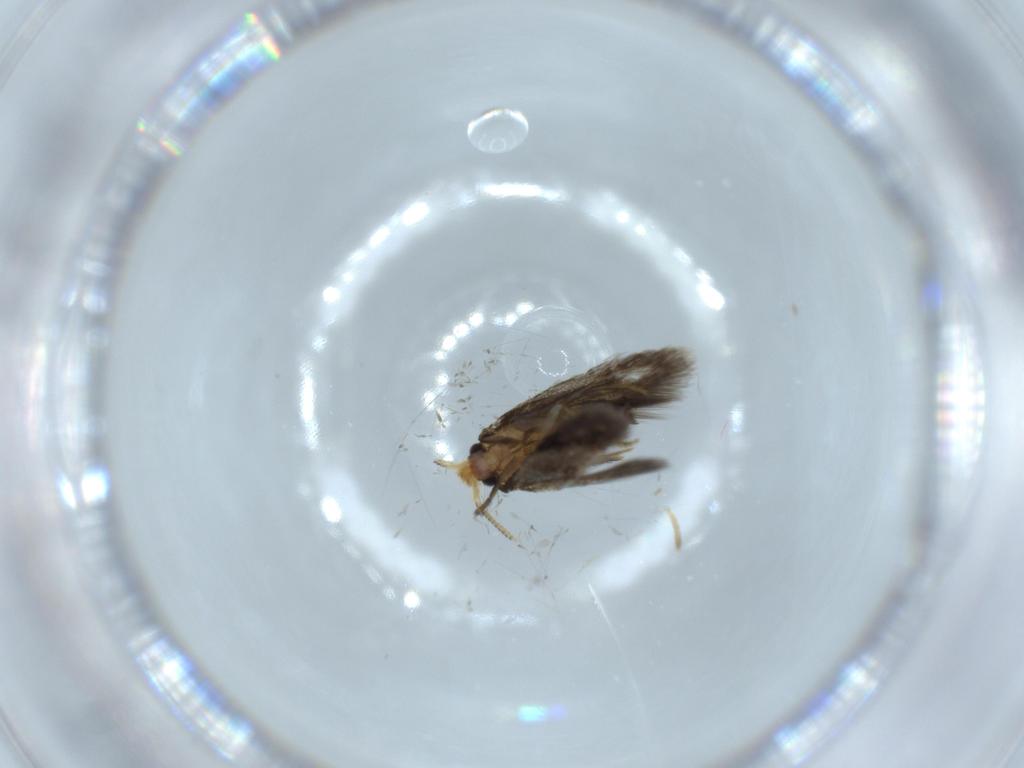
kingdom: Animalia
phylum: Arthropoda
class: Insecta
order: Lepidoptera
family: Nepticulidae
